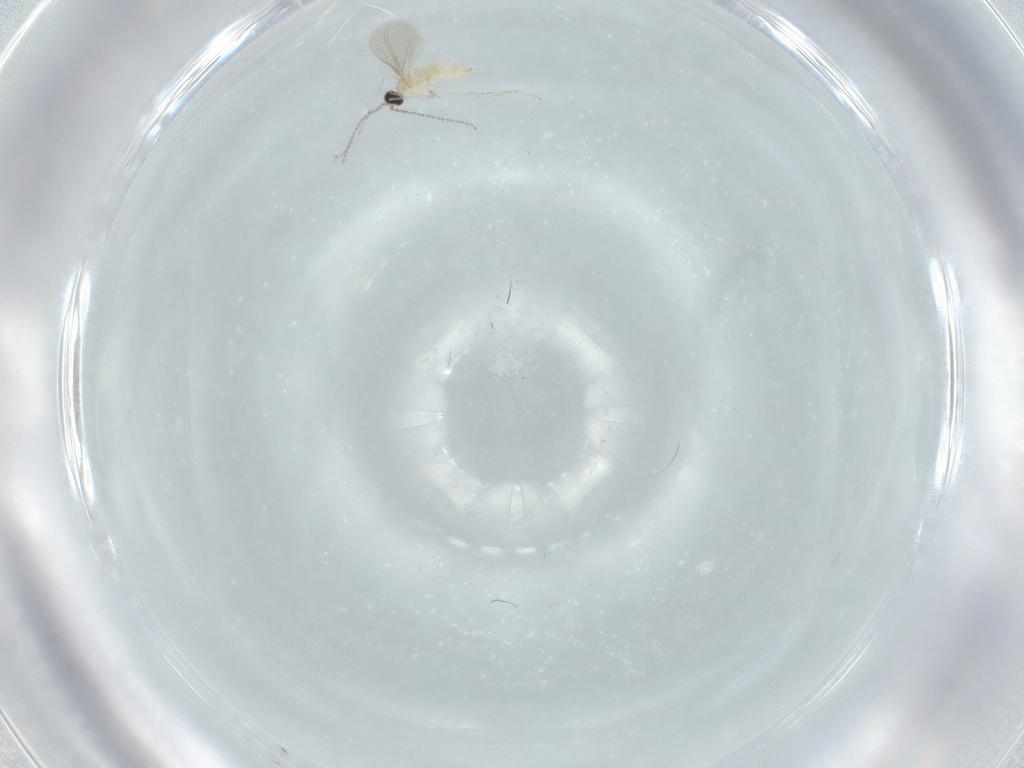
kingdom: Animalia
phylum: Arthropoda
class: Insecta
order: Diptera
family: Cecidomyiidae
